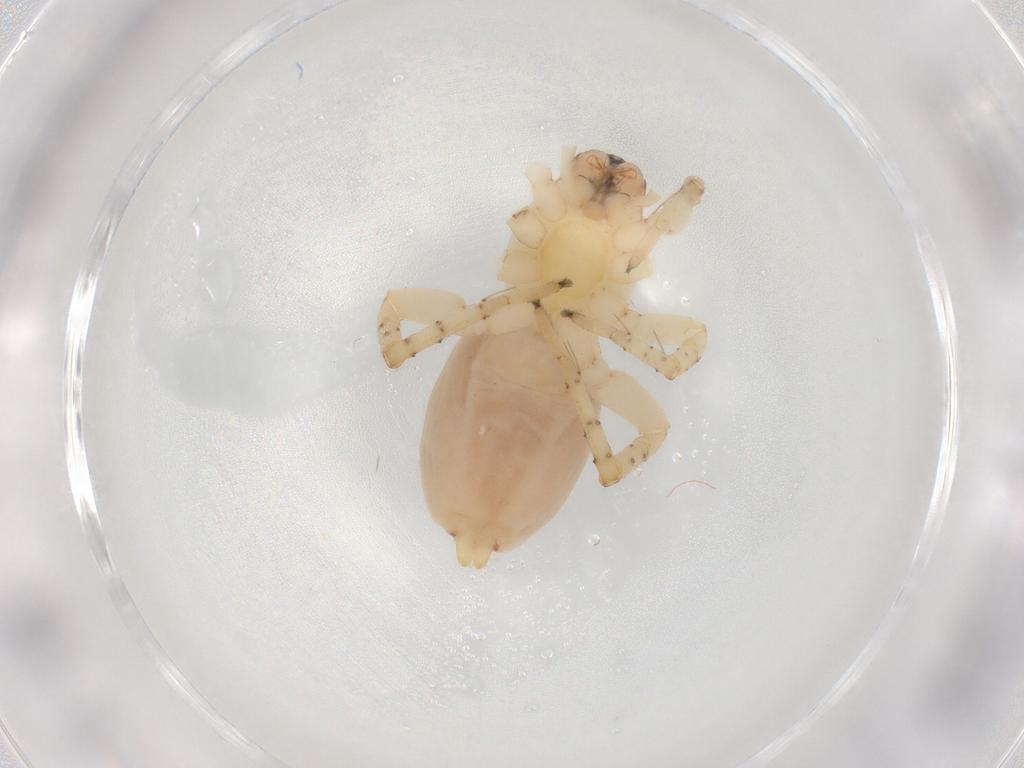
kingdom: Animalia
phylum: Arthropoda
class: Arachnida
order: Araneae
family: Clubionidae
